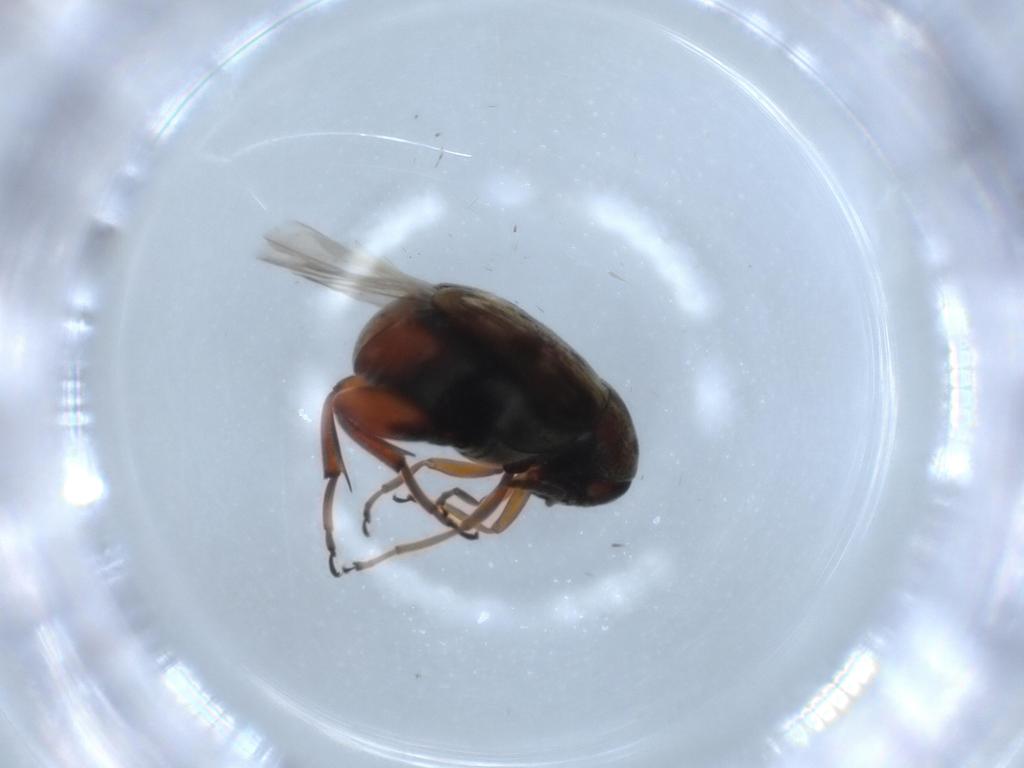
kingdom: Animalia
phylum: Arthropoda
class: Insecta
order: Coleoptera
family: Chrysomelidae
